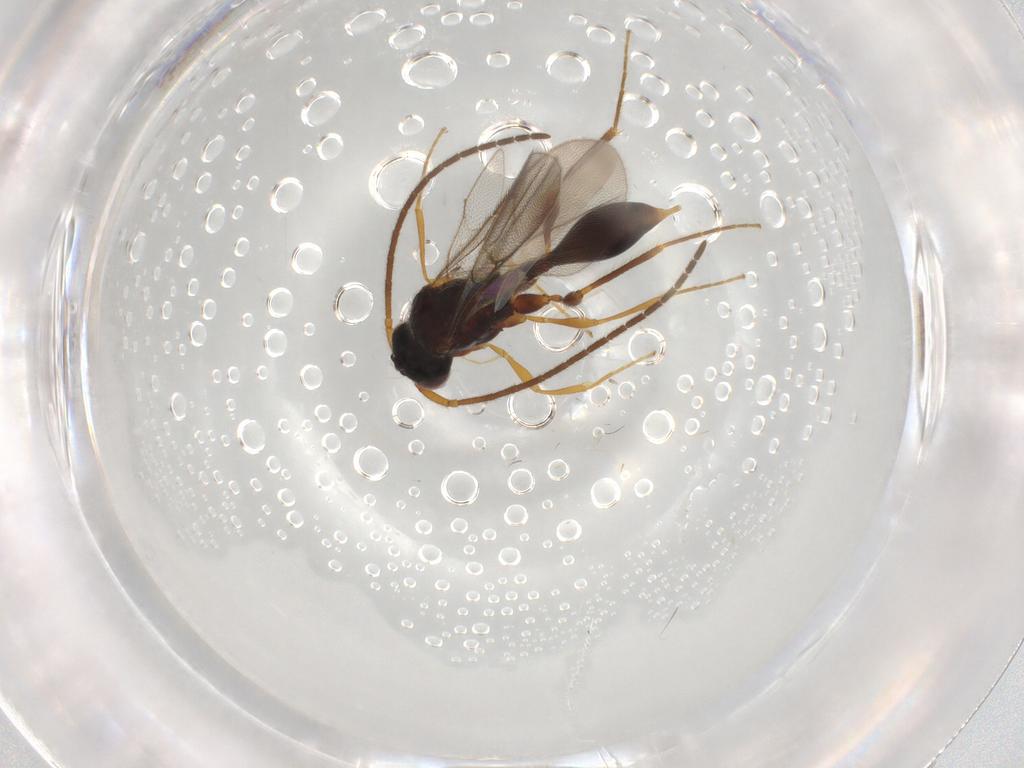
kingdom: Animalia
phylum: Arthropoda
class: Insecta
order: Hymenoptera
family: Diapriidae
